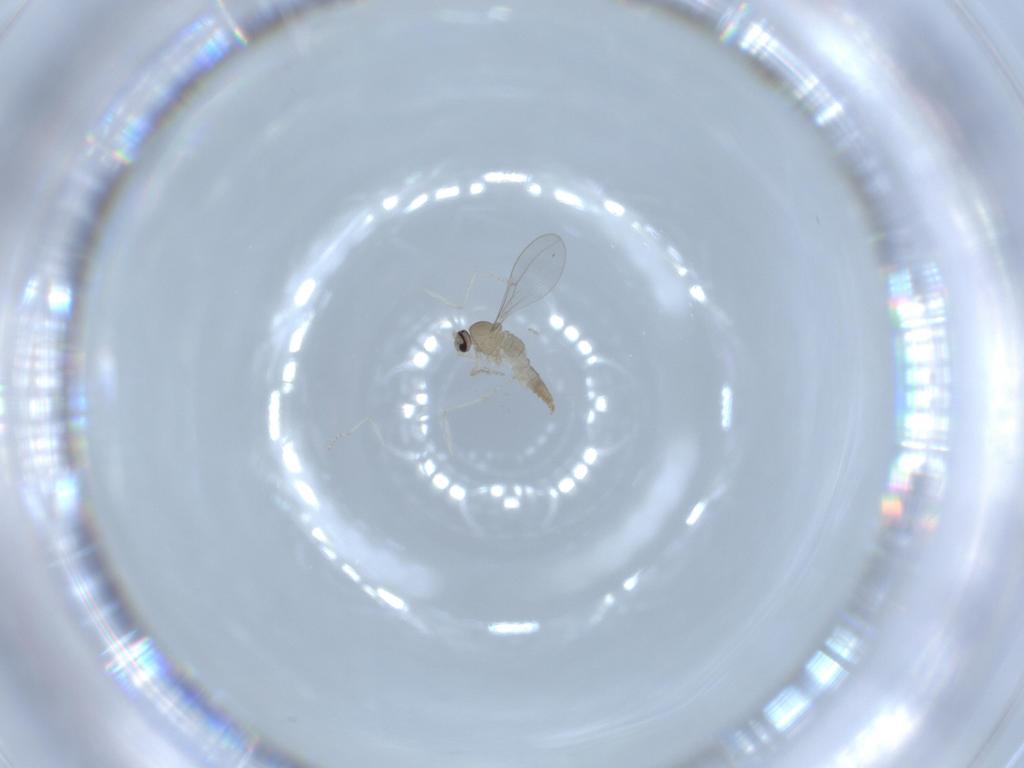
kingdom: Animalia
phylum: Arthropoda
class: Insecta
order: Diptera
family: Cecidomyiidae
